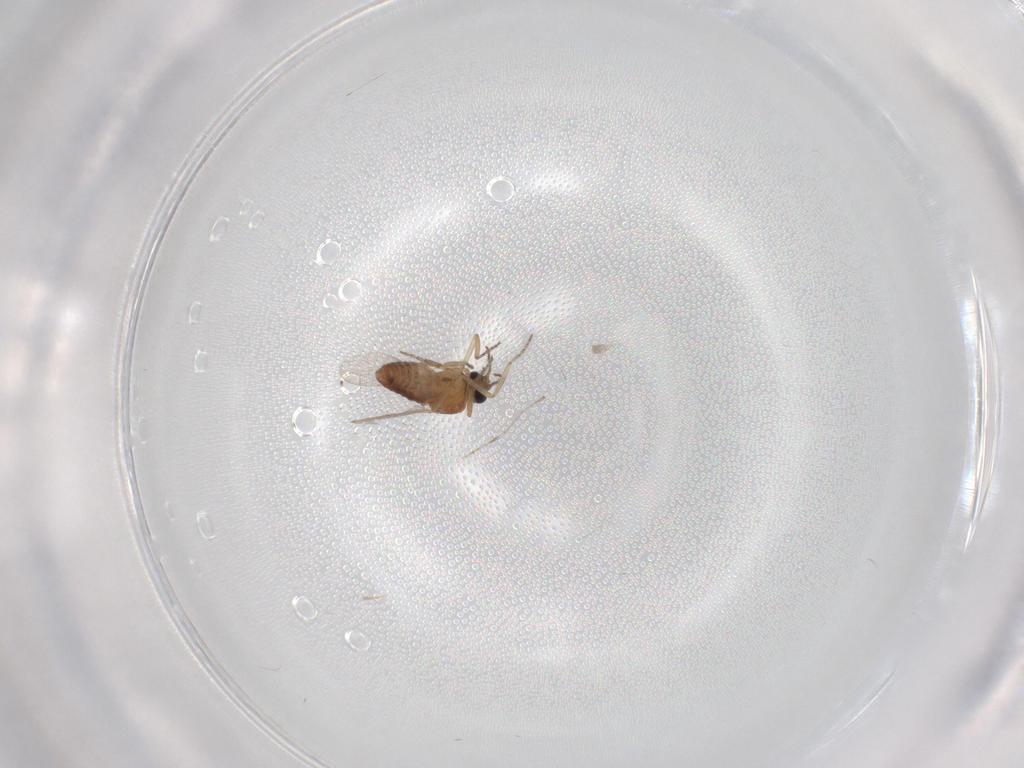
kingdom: Animalia
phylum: Arthropoda
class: Insecta
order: Diptera
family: Ceratopogonidae
